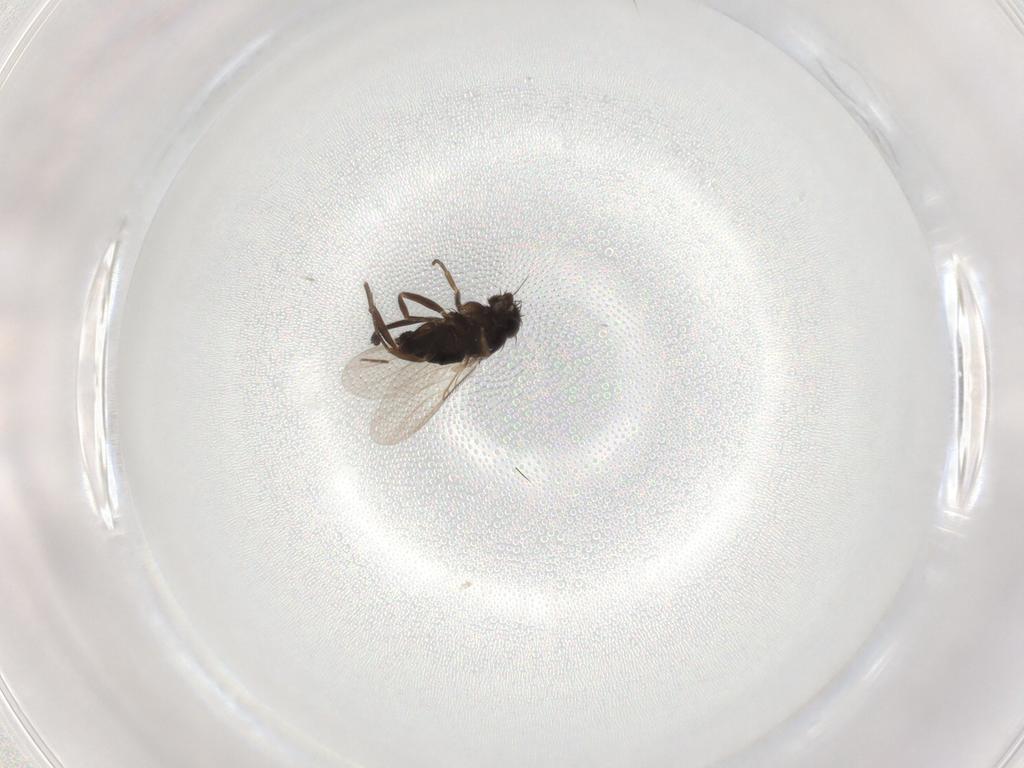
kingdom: Animalia
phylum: Arthropoda
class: Insecta
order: Diptera
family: Phoridae
